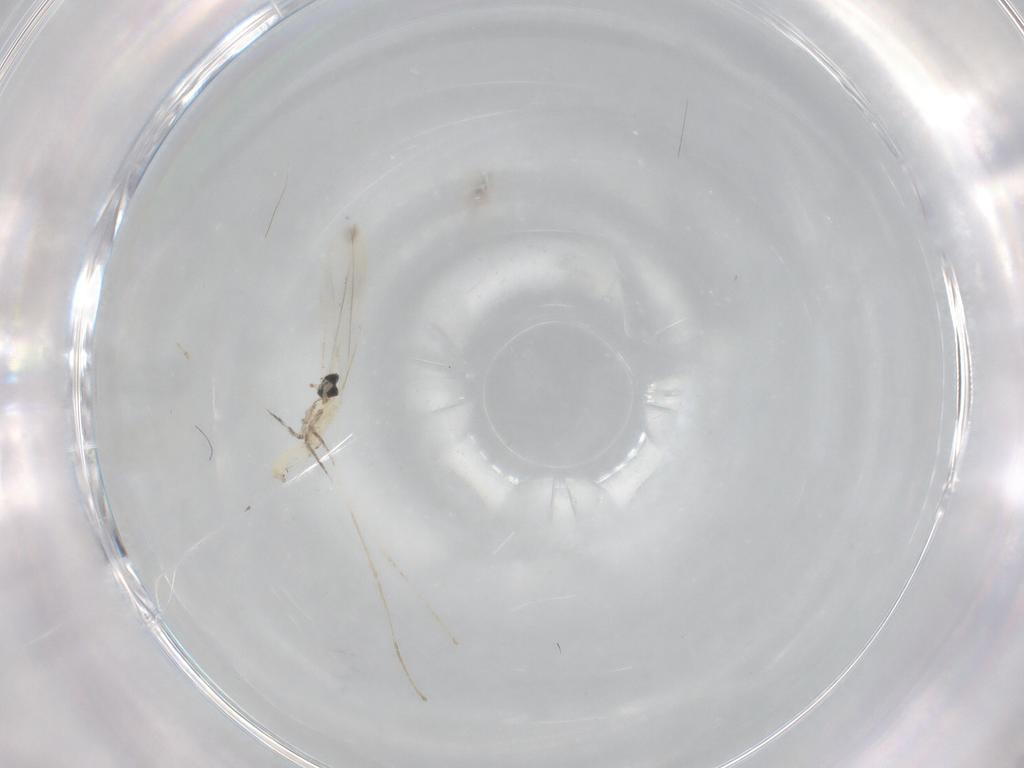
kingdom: Animalia
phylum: Arthropoda
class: Insecta
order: Diptera
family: Cecidomyiidae
